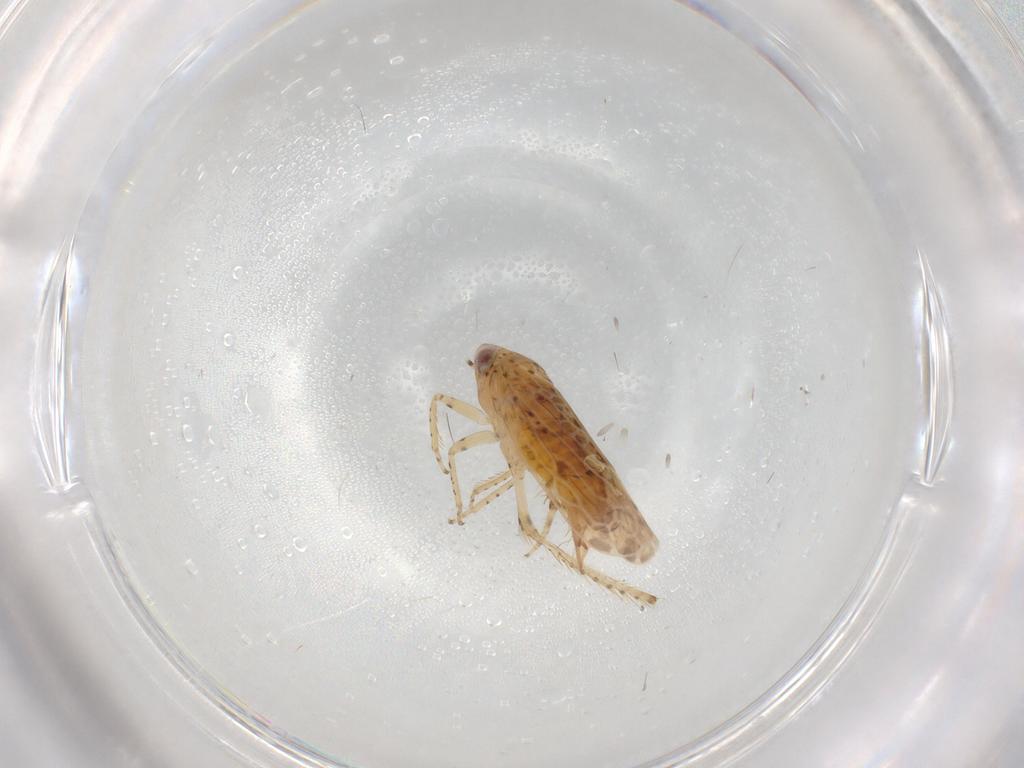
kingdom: Animalia
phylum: Arthropoda
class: Insecta
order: Hemiptera
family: Cicadellidae
